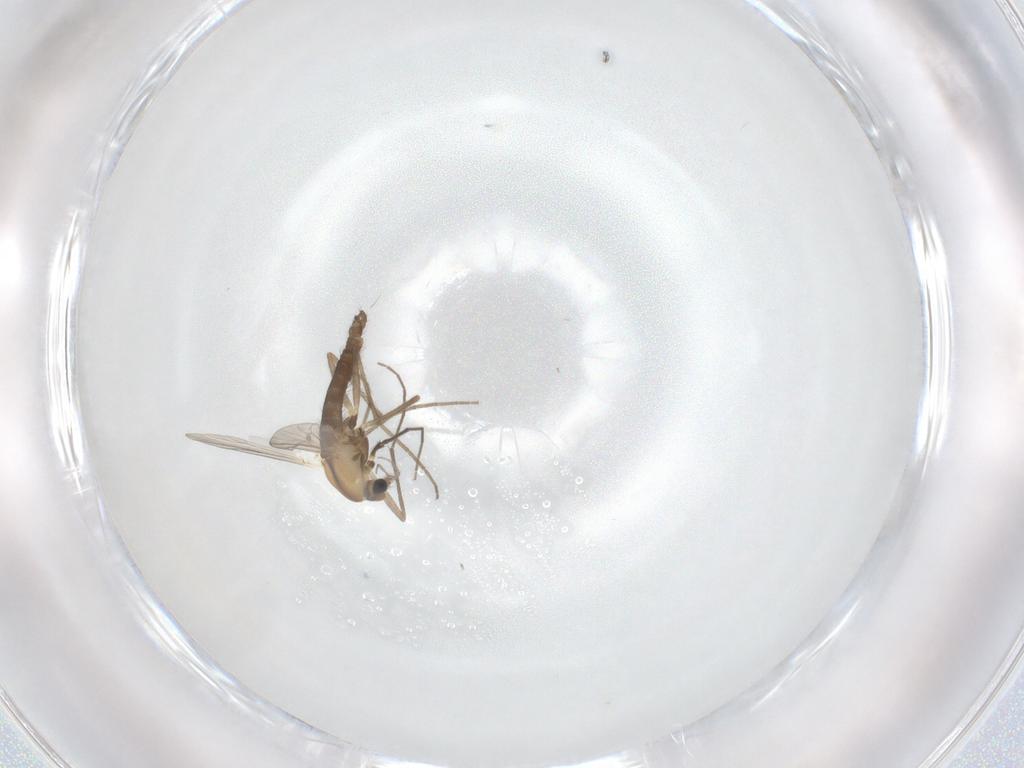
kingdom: Animalia
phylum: Arthropoda
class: Insecta
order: Diptera
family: Chironomidae
